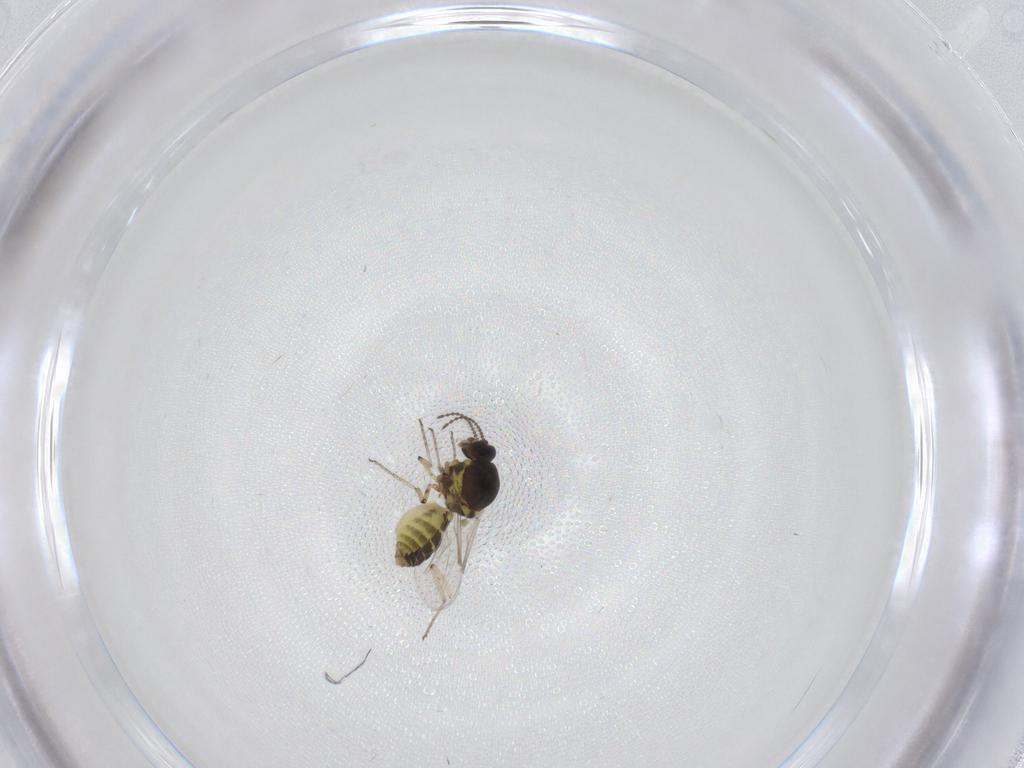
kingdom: Animalia
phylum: Arthropoda
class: Insecta
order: Diptera
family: Ceratopogonidae
